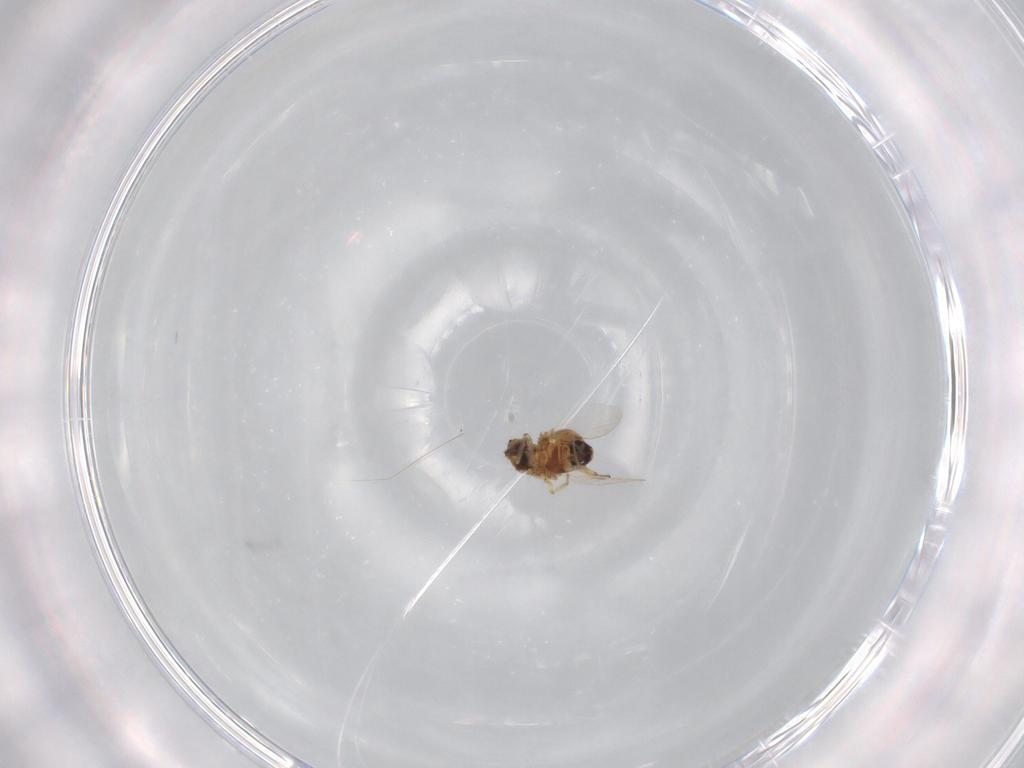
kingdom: Animalia
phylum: Arthropoda
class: Insecta
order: Diptera
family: Ceratopogonidae
